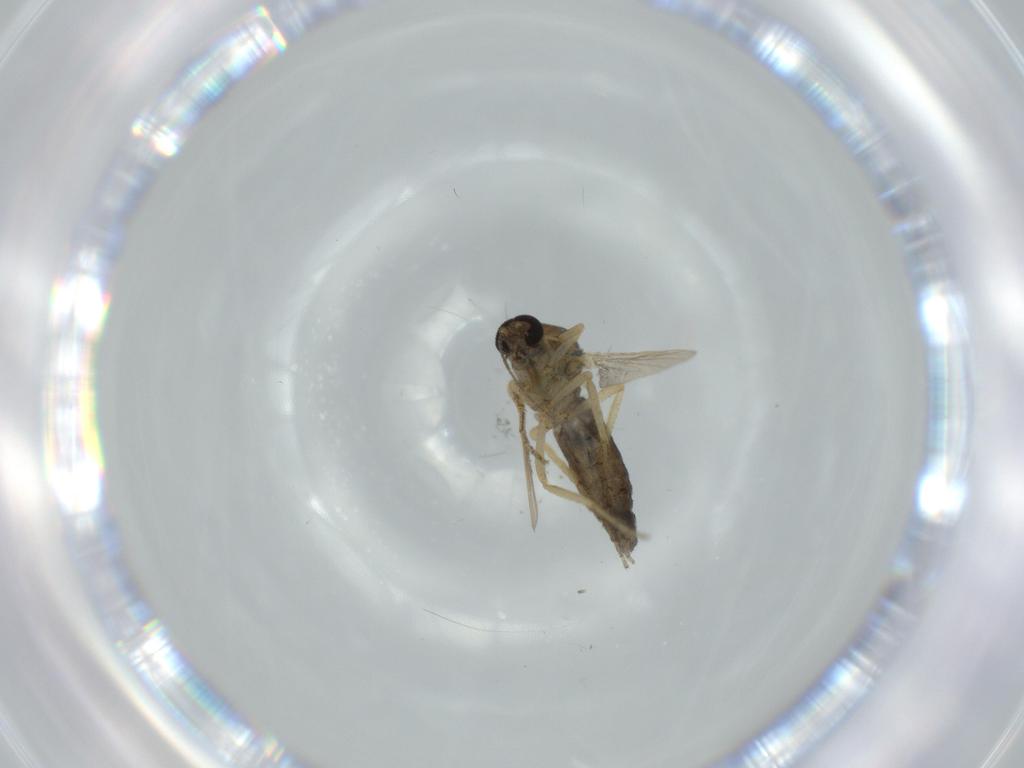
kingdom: Animalia
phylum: Arthropoda
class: Insecta
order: Diptera
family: Ceratopogonidae
